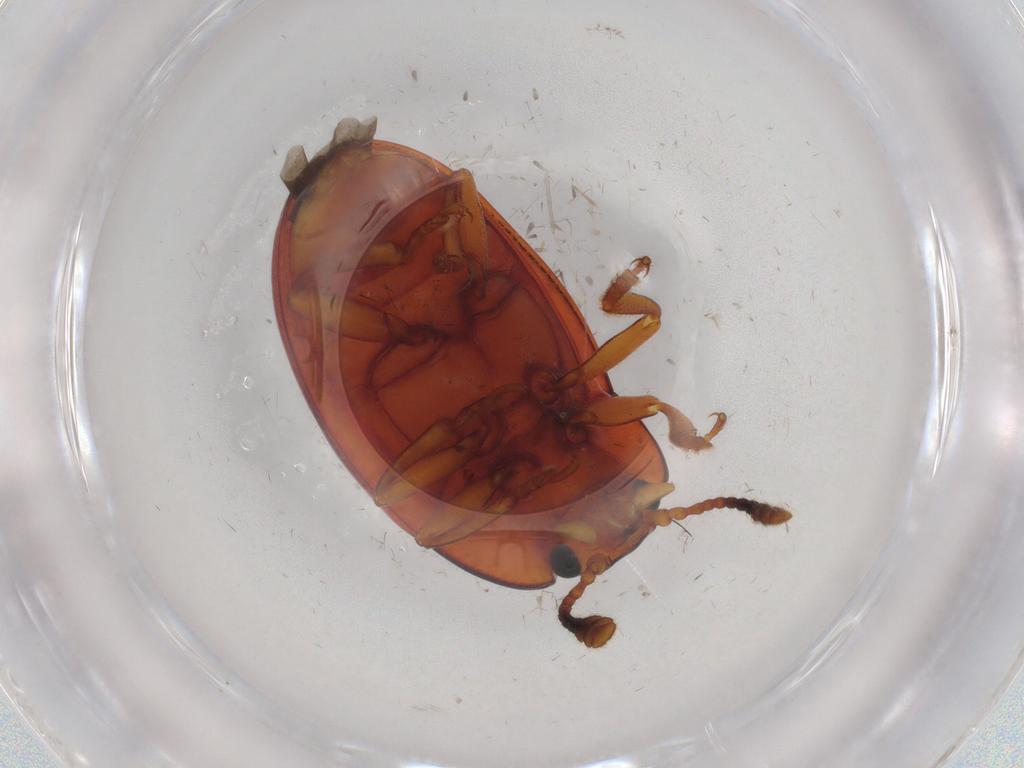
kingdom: Animalia
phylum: Arthropoda
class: Insecta
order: Coleoptera
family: Erotylidae
